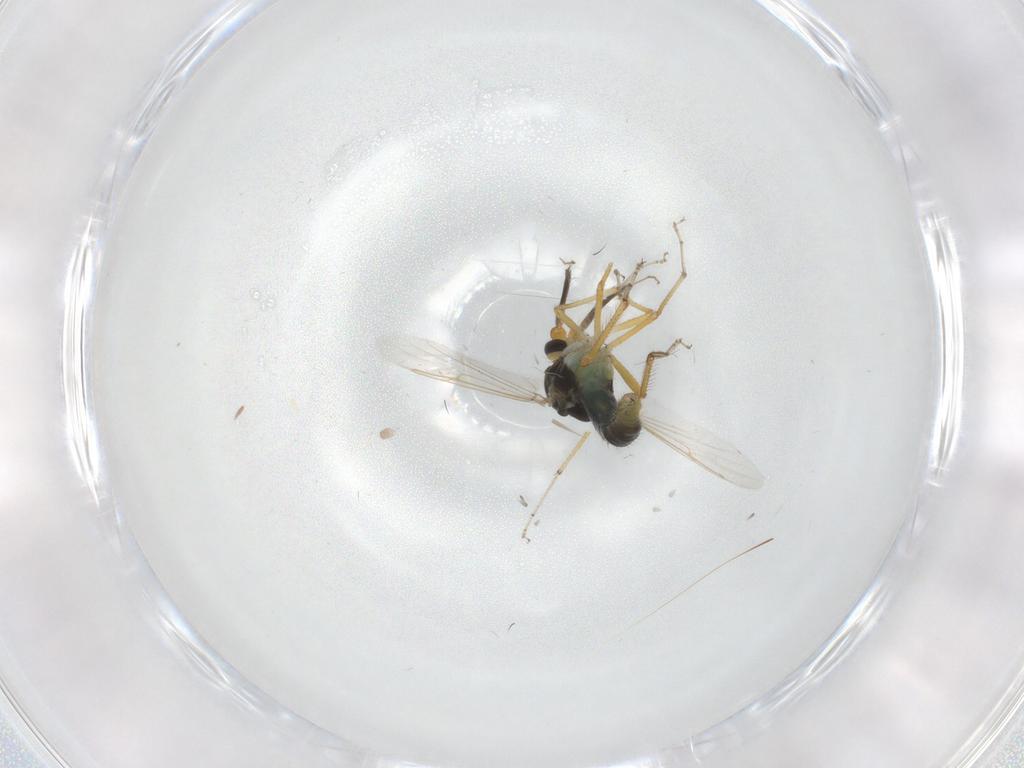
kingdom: Animalia
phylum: Arthropoda
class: Insecta
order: Diptera
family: Ceratopogonidae
